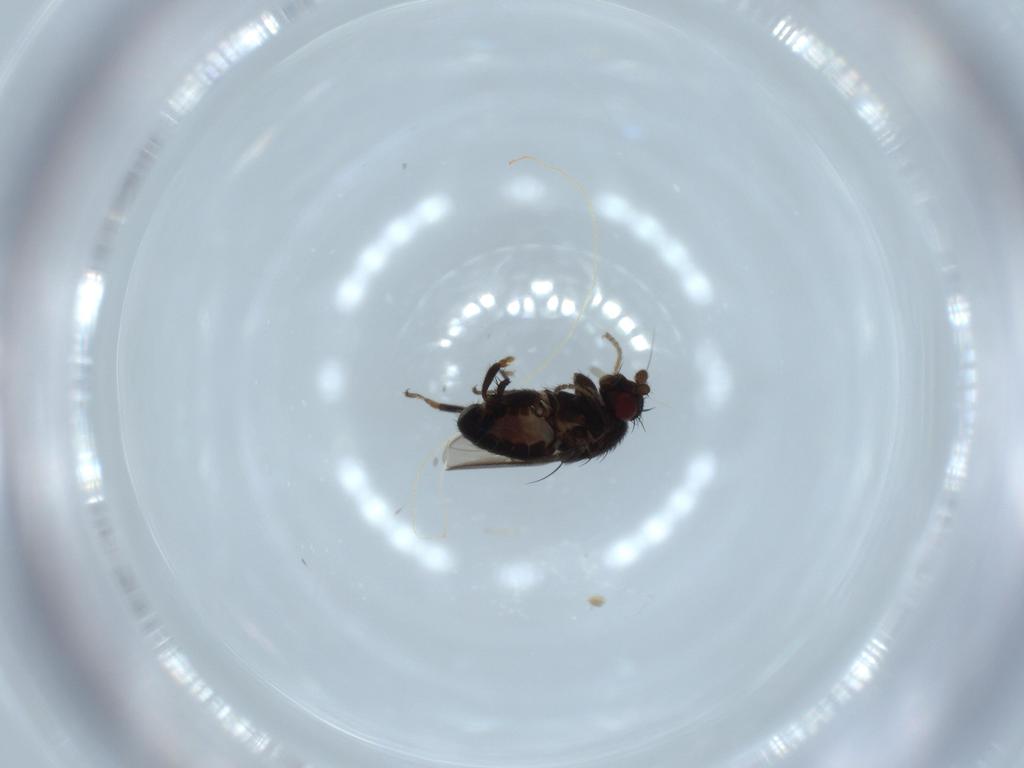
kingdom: Animalia
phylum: Arthropoda
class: Insecta
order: Diptera
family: Sphaeroceridae
